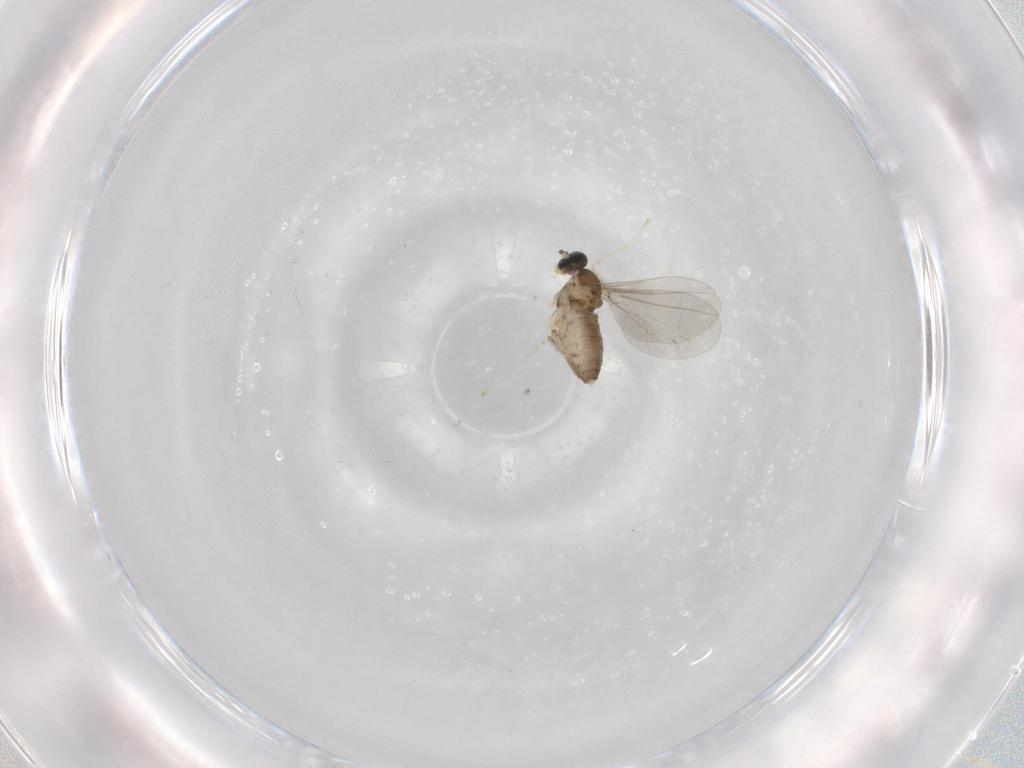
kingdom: Animalia
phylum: Arthropoda
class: Insecta
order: Diptera
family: Cecidomyiidae
